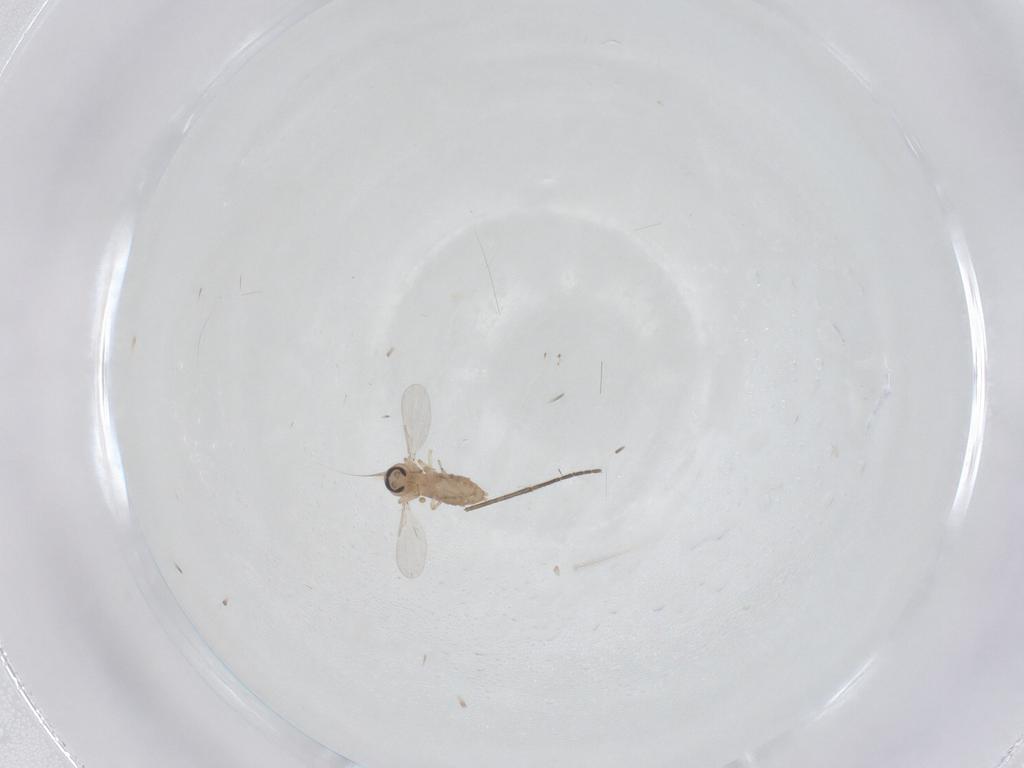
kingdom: Animalia
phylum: Arthropoda
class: Insecta
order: Diptera
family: Sciaridae
